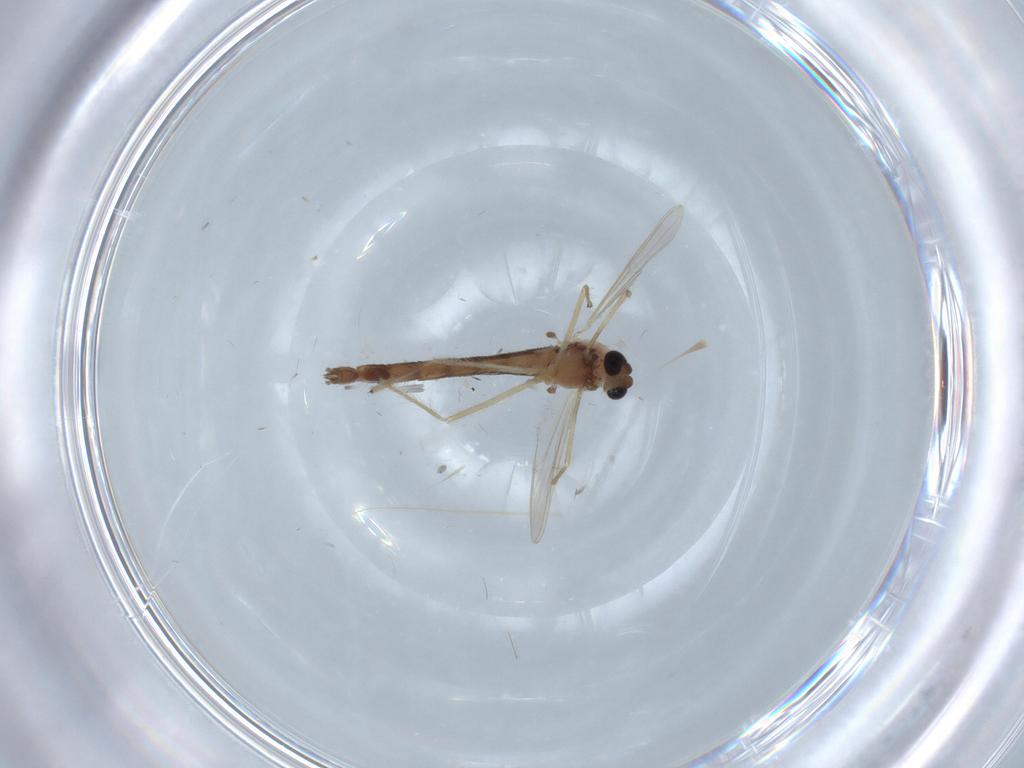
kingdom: Animalia
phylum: Arthropoda
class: Insecta
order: Diptera
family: Chironomidae
